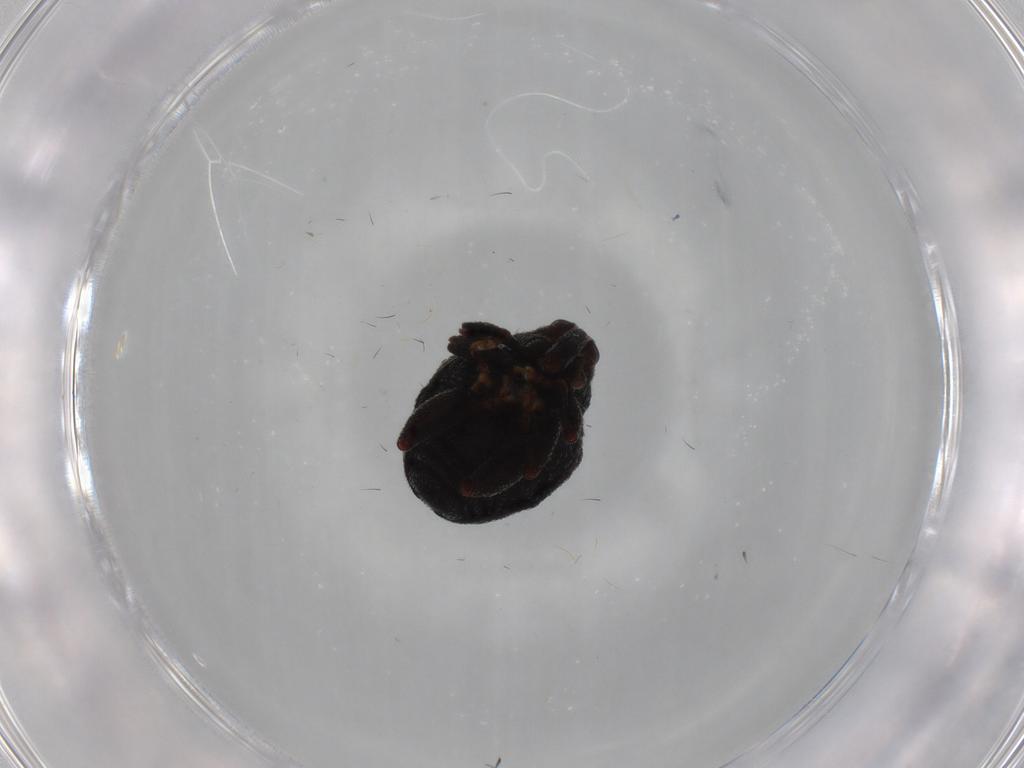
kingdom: Animalia
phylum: Arthropoda
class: Insecta
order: Coleoptera
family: Curculionidae
